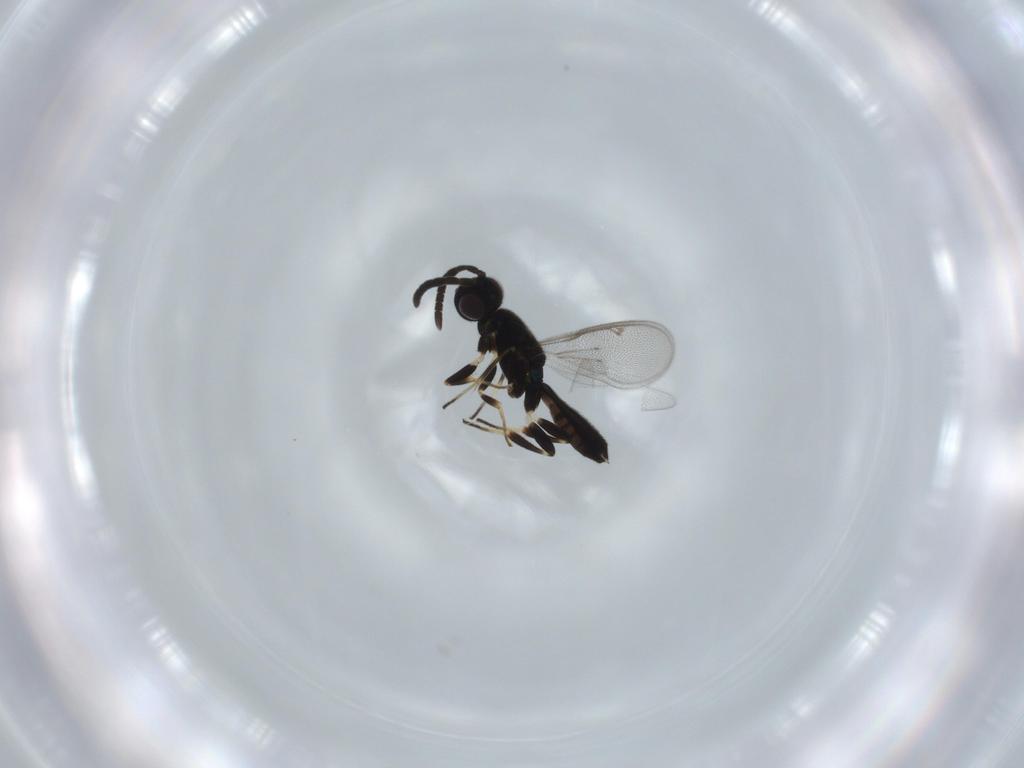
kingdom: Animalia
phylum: Arthropoda
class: Insecta
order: Hymenoptera
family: Eupelmidae
